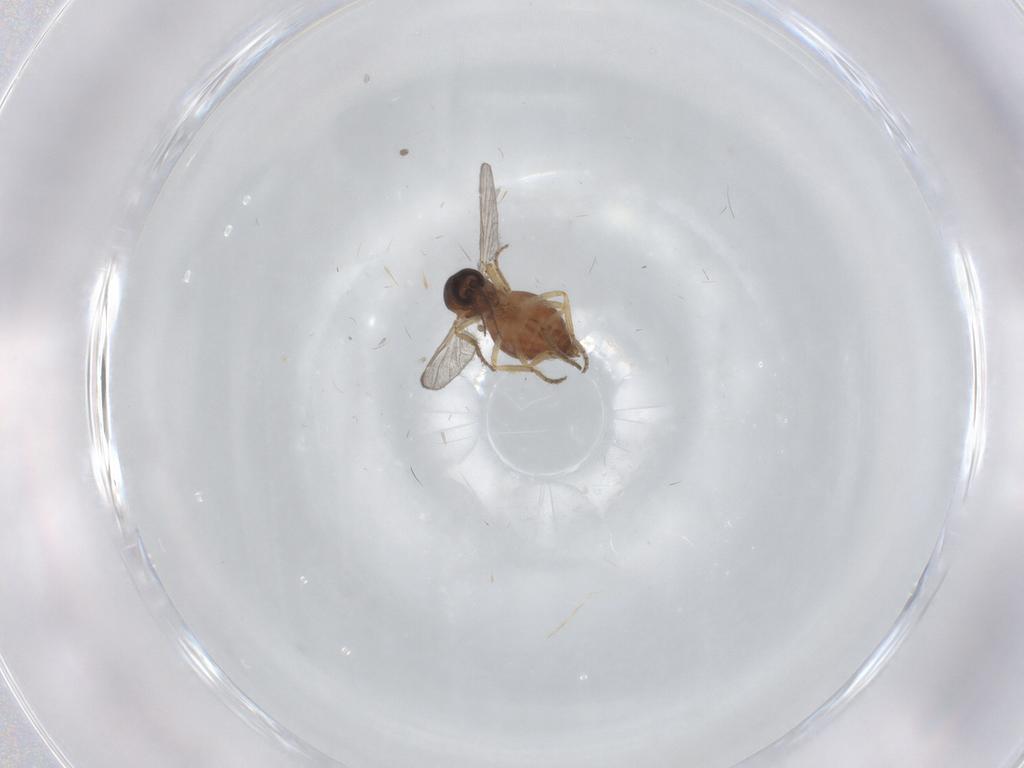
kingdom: Animalia
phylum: Arthropoda
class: Insecta
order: Diptera
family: Ceratopogonidae
